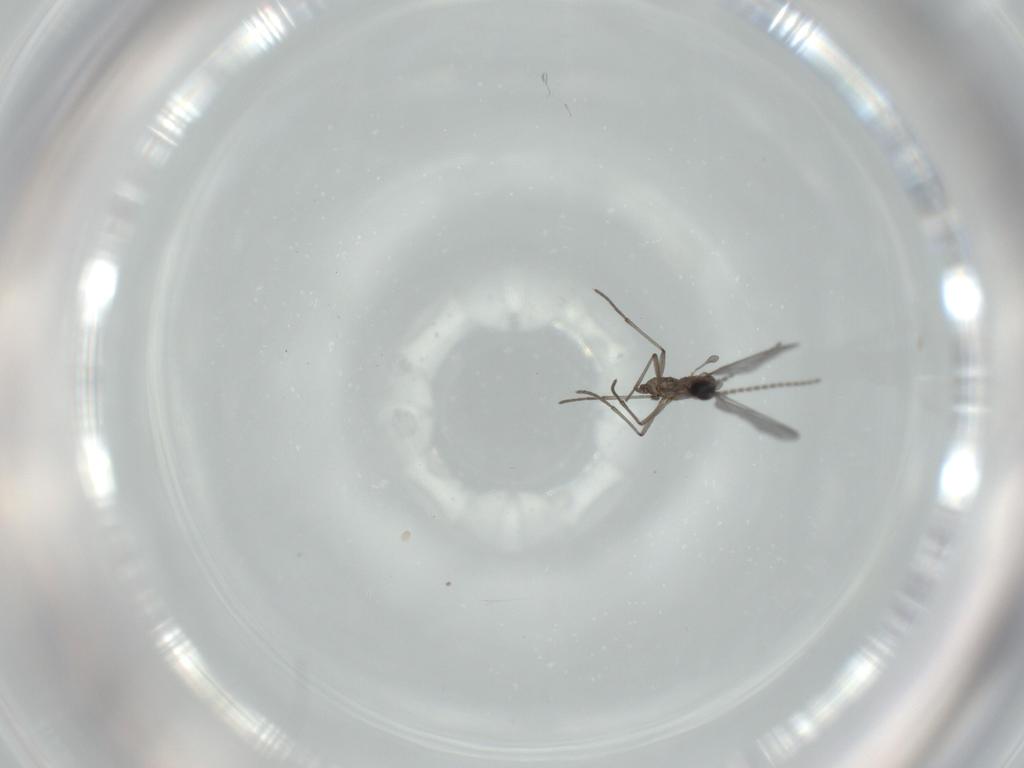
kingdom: Animalia
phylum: Arthropoda
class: Insecta
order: Diptera
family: Sciaridae
